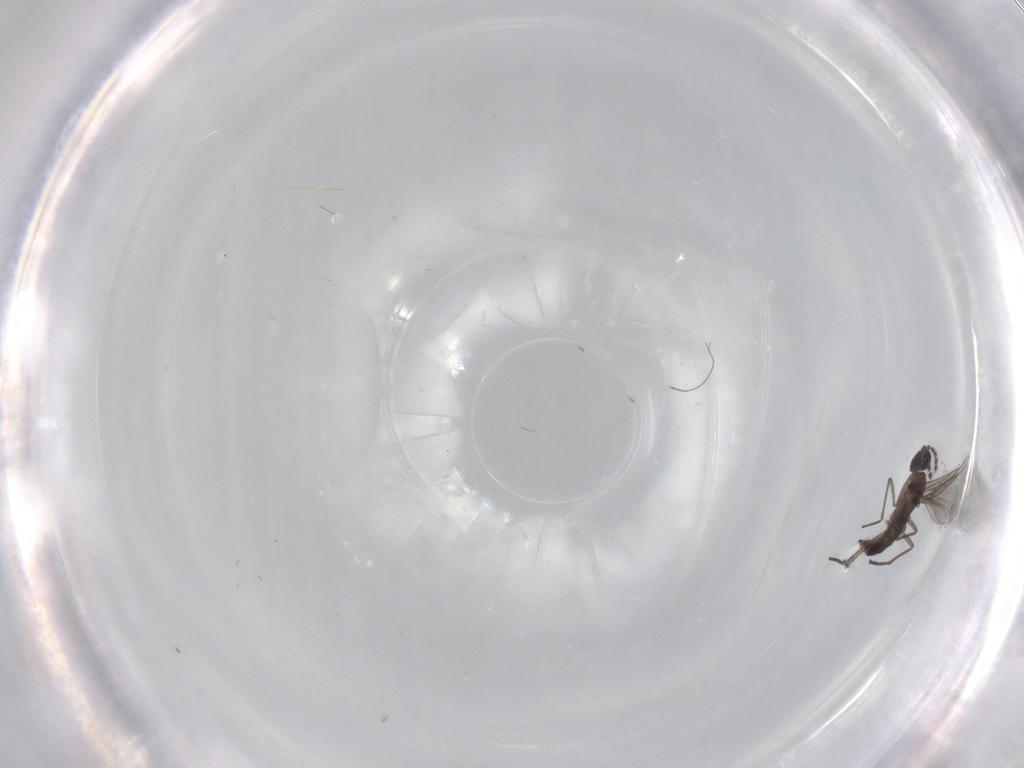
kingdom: Animalia
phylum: Arthropoda
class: Insecta
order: Diptera
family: Sciaridae
